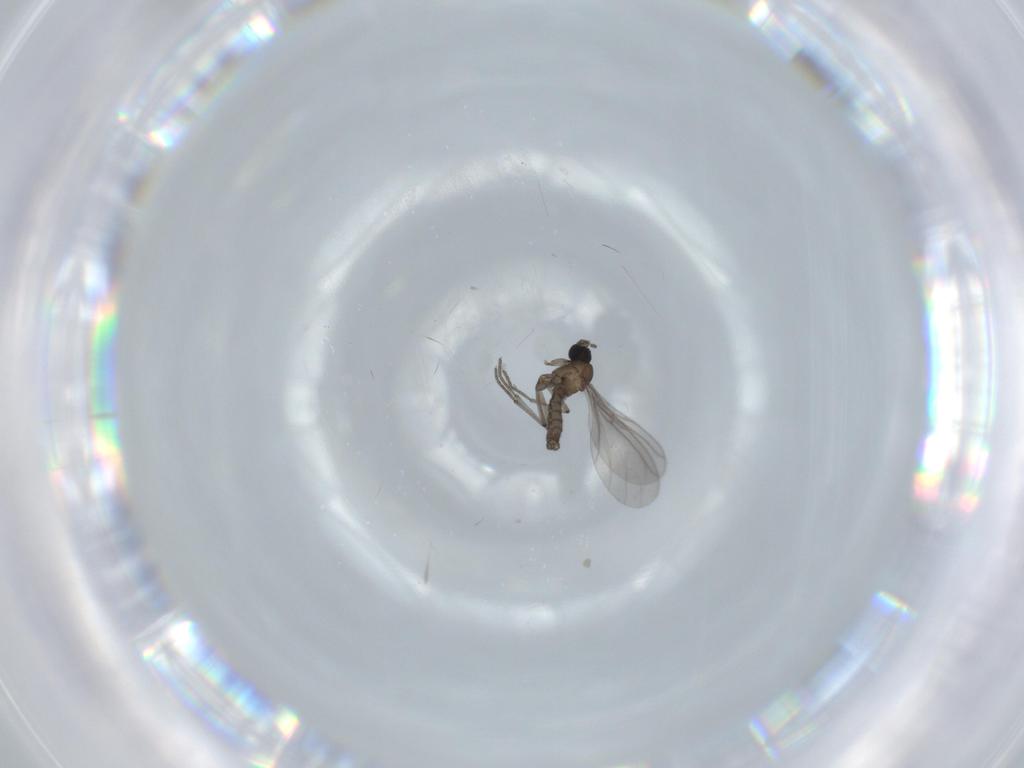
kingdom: Animalia
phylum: Arthropoda
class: Insecta
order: Diptera
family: Sciaridae
